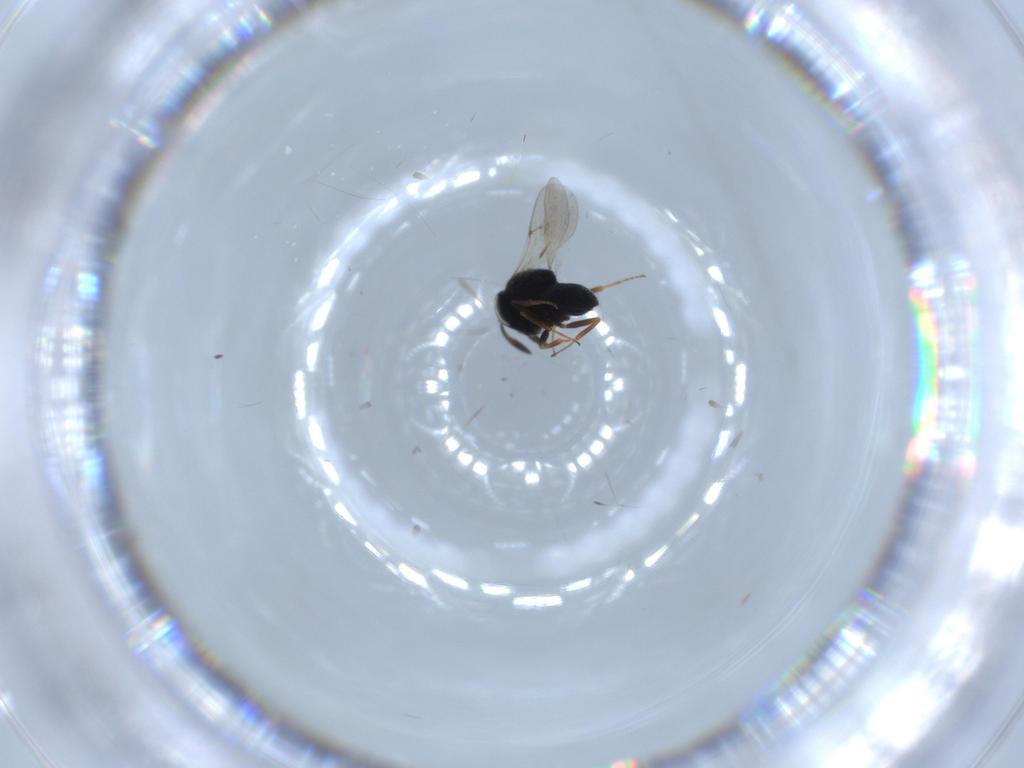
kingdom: Animalia
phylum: Arthropoda
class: Insecta
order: Hymenoptera
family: Scelionidae
